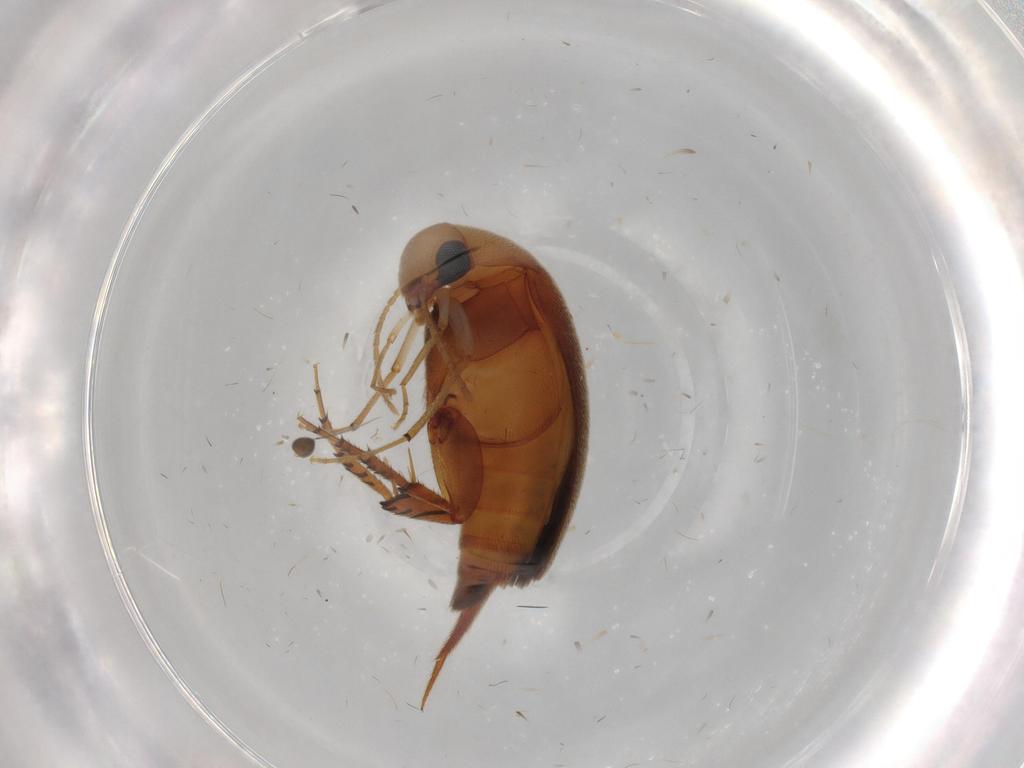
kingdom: Animalia
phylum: Arthropoda
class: Insecta
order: Coleoptera
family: Mordellidae
